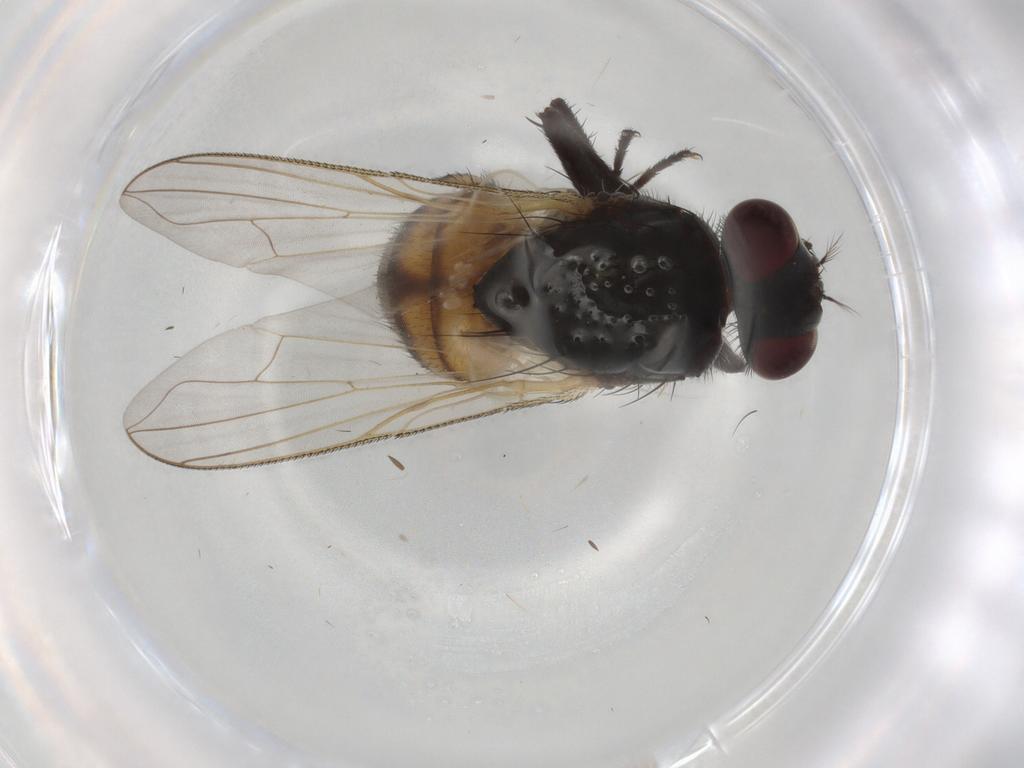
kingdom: Animalia
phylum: Arthropoda
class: Insecta
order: Diptera
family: Muscidae
